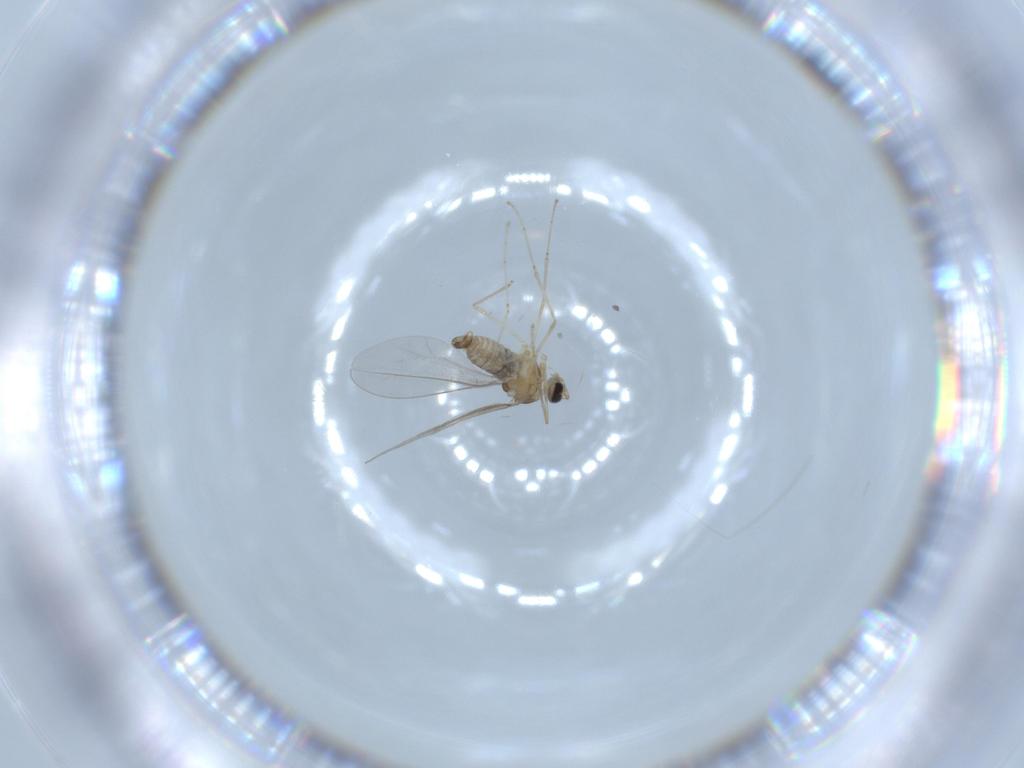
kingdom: Animalia
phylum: Arthropoda
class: Insecta
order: Diptera
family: Cecidomyiidae
